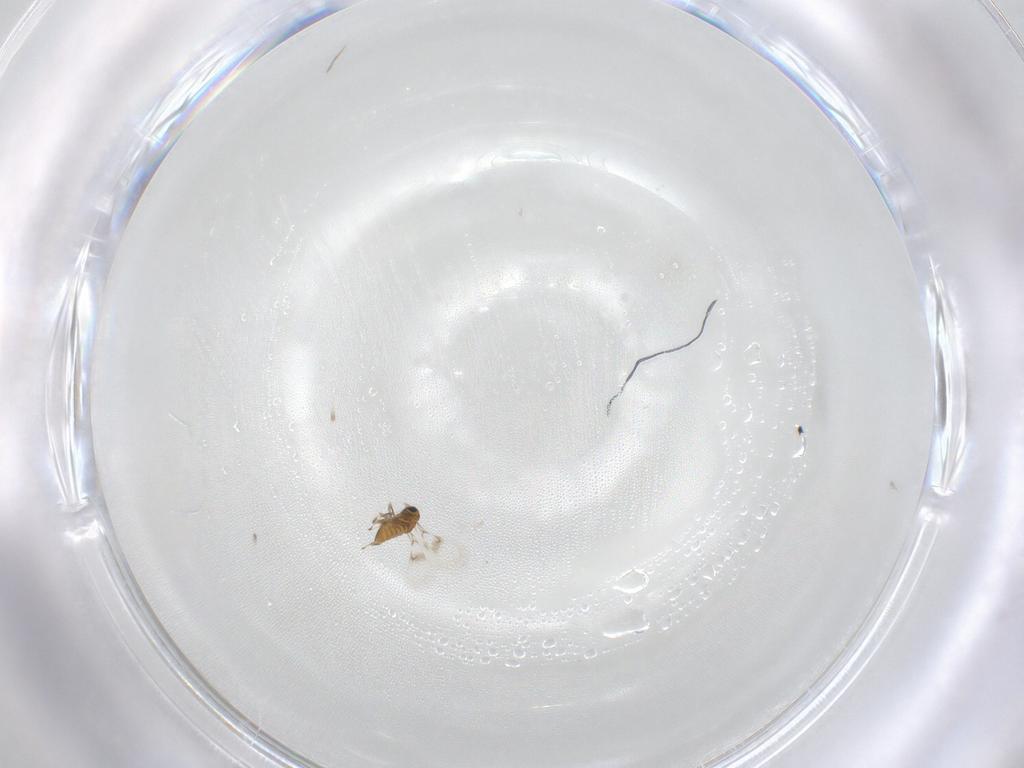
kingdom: Animalia
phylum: Arthropoda
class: Insecta
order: Hymenoptera
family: Trichogrammatidae
